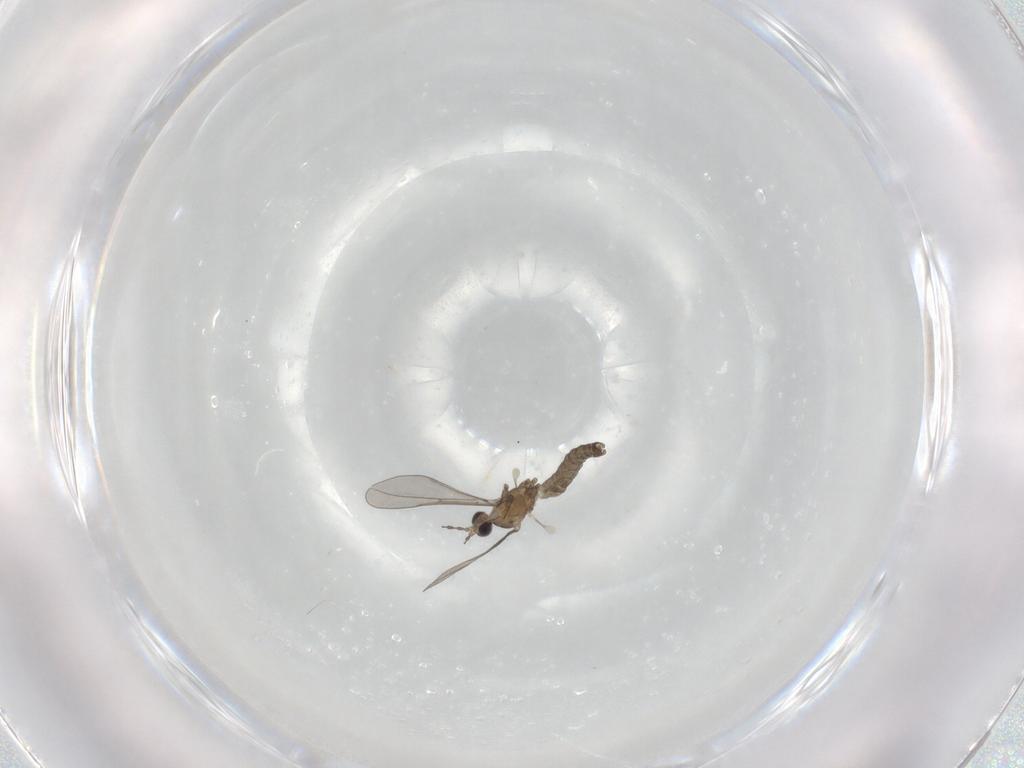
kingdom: Animalia
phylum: Arthropoda
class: Insecta
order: Diptera
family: Cecidomyiidae
